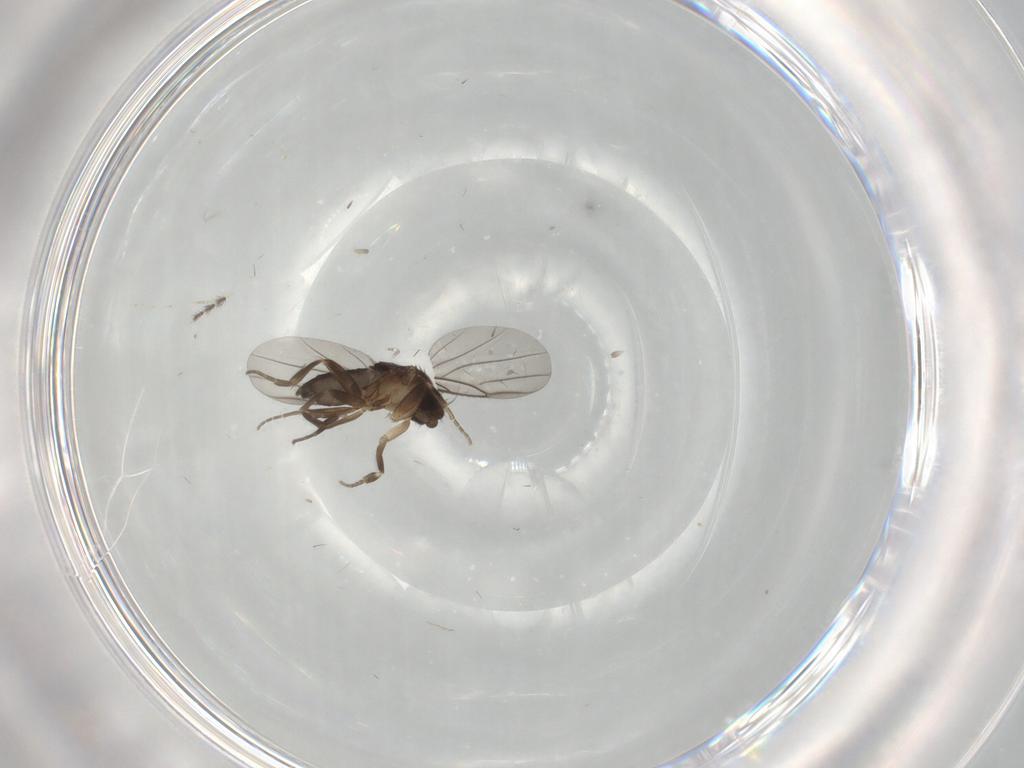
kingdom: Animalia
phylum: Arthropoda
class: Insecta
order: Diptera
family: Cecidomyiidae
